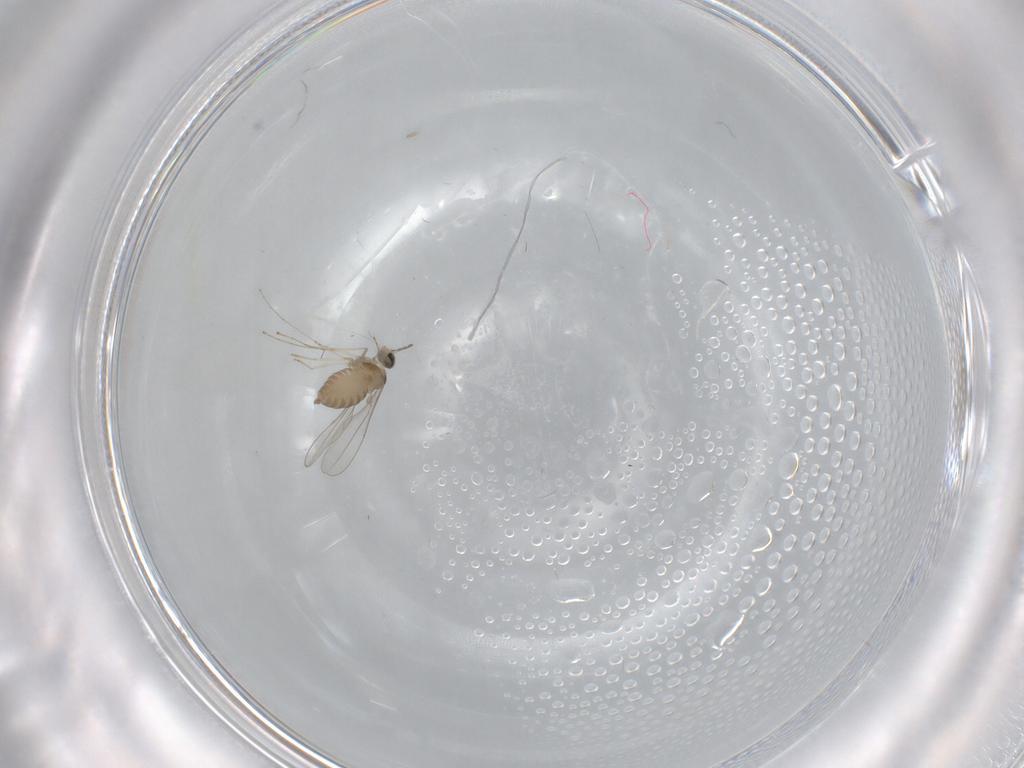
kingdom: Animalia
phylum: Arthropoda
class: Insecta
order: Diptera
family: Cecidomyiidae
